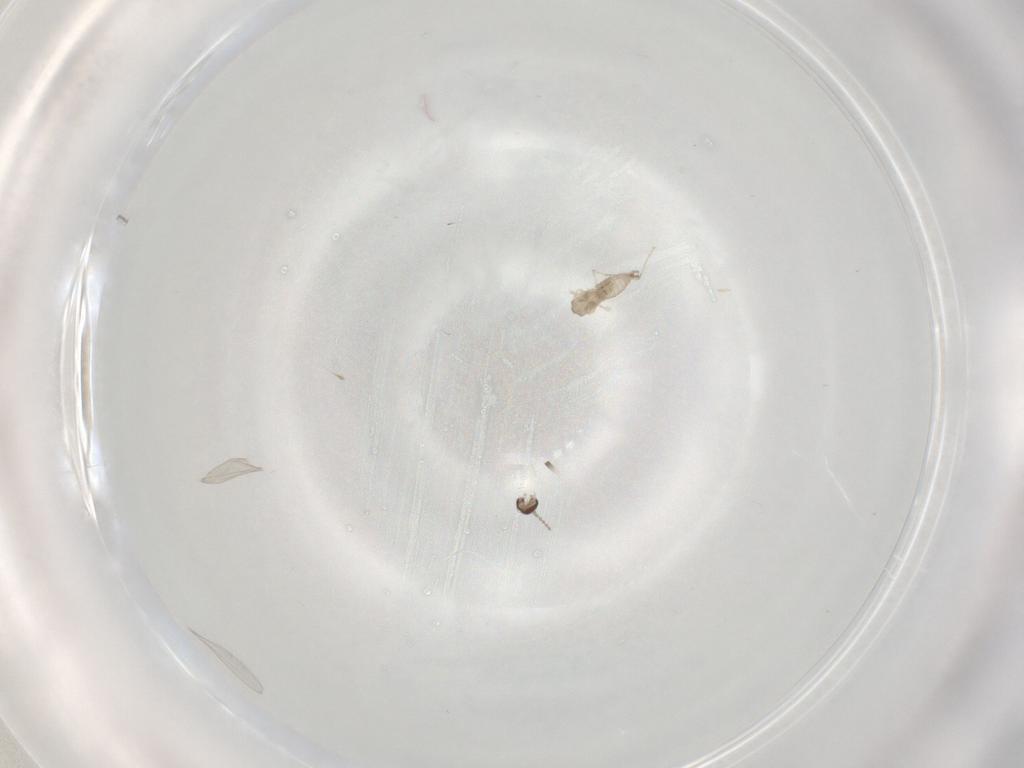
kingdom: Animalia
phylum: Arthropoda
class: Insecta
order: Diptera
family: Cecidomyiidae
